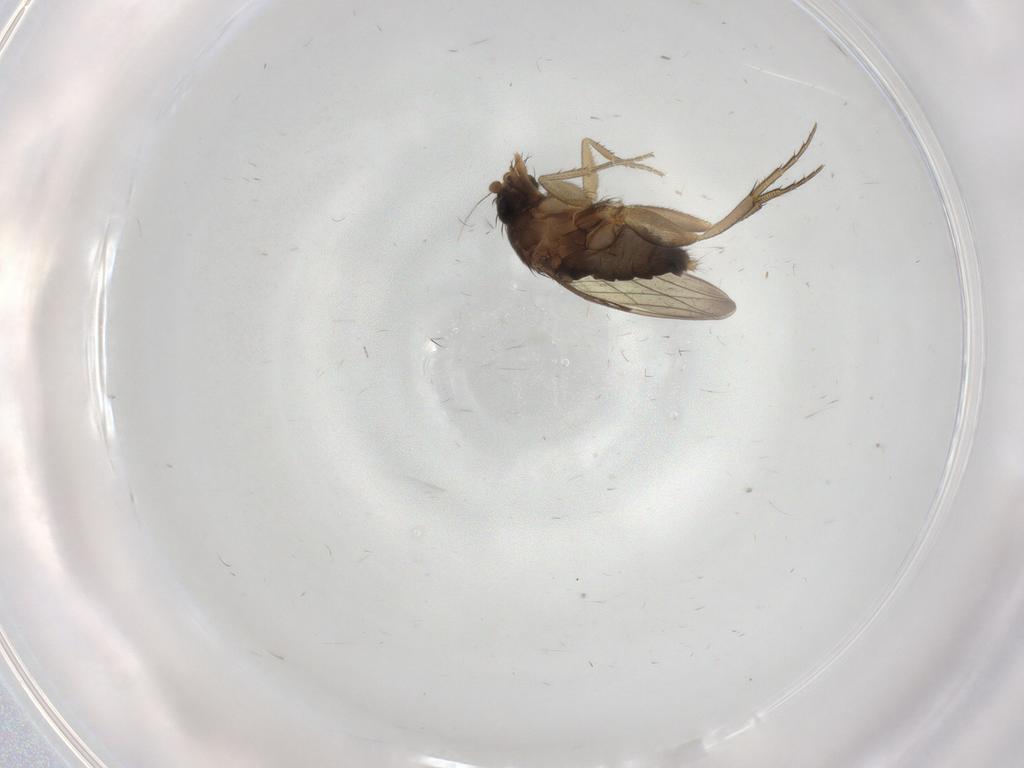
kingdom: Animalia
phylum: Arthropoda
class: Insecta
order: Diptera
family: Phoridae
